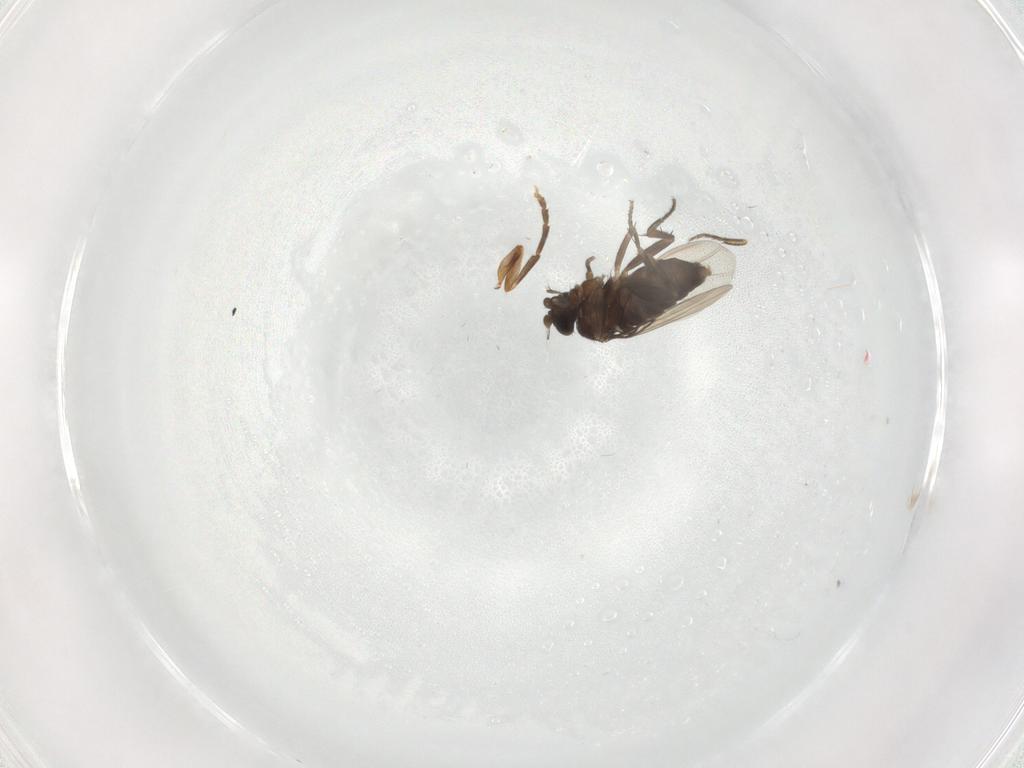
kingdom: Animalia
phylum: Arthropoda
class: Insecta
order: Diptera
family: Phoridae
